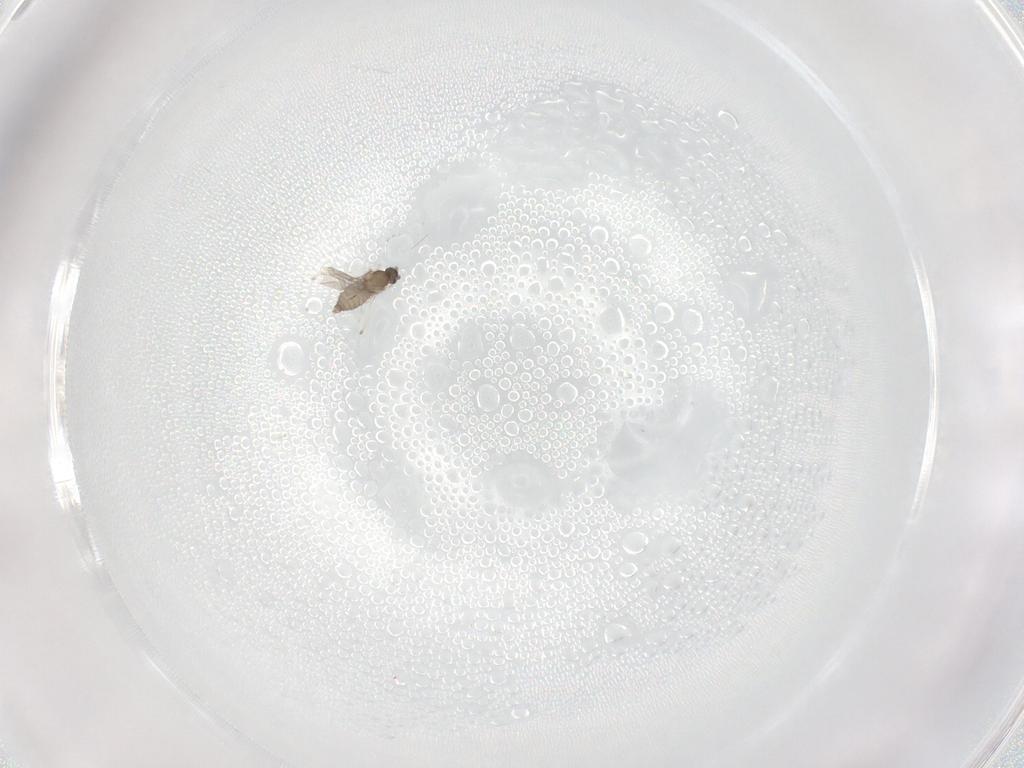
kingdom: Animalia
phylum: Arthropoda
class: Insecta
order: Diptera
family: Cecidomyiidae
